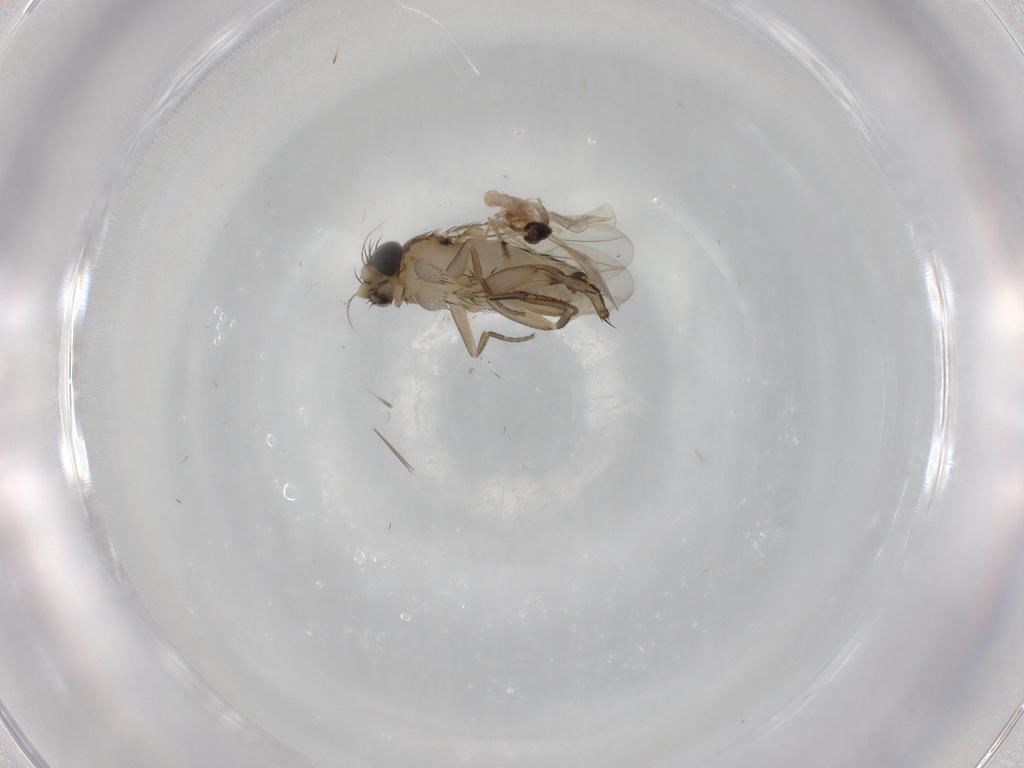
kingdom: Animalia
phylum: Arthropoda
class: Insecta
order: Diptera
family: Phoridae
